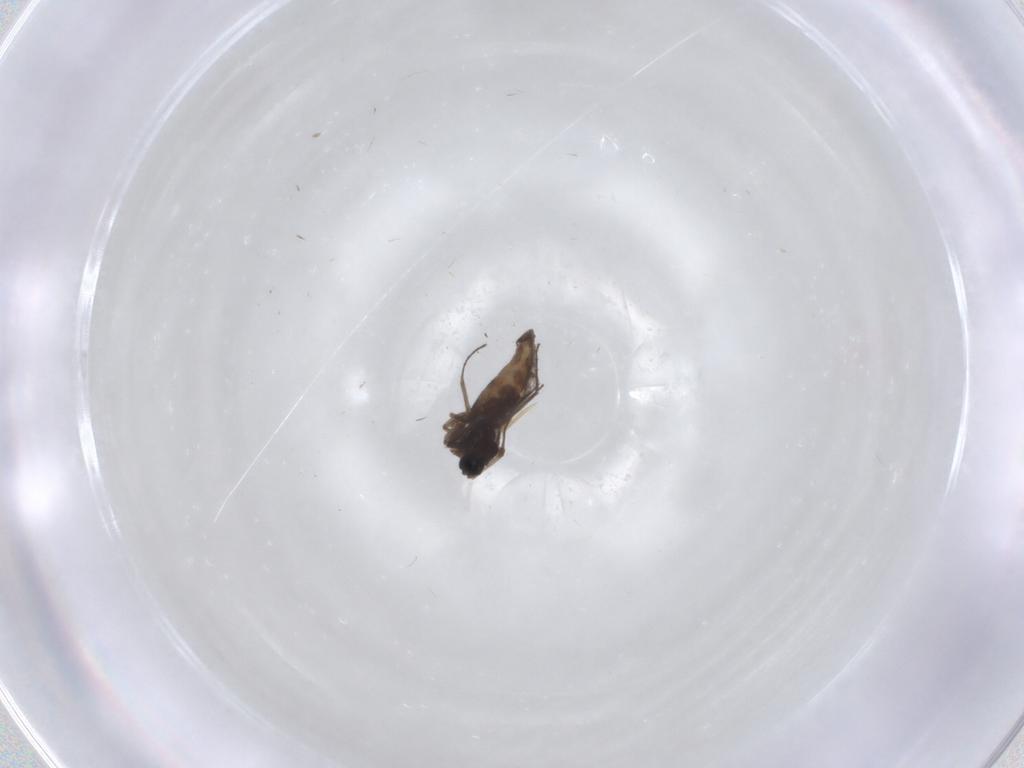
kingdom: Animalia
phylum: Arthropoda
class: Insecta
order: Diptera
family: Cecidomyiidae
